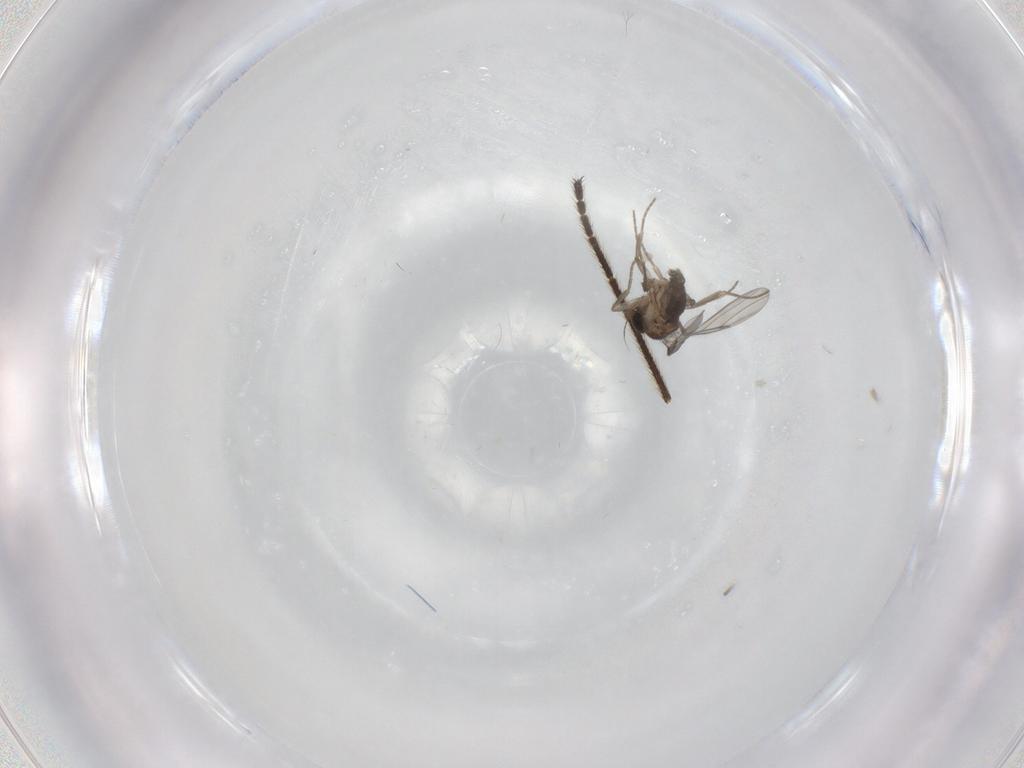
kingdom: Animalia
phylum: Arthropoda
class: Insecta
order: Diptera
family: Limoniidae
